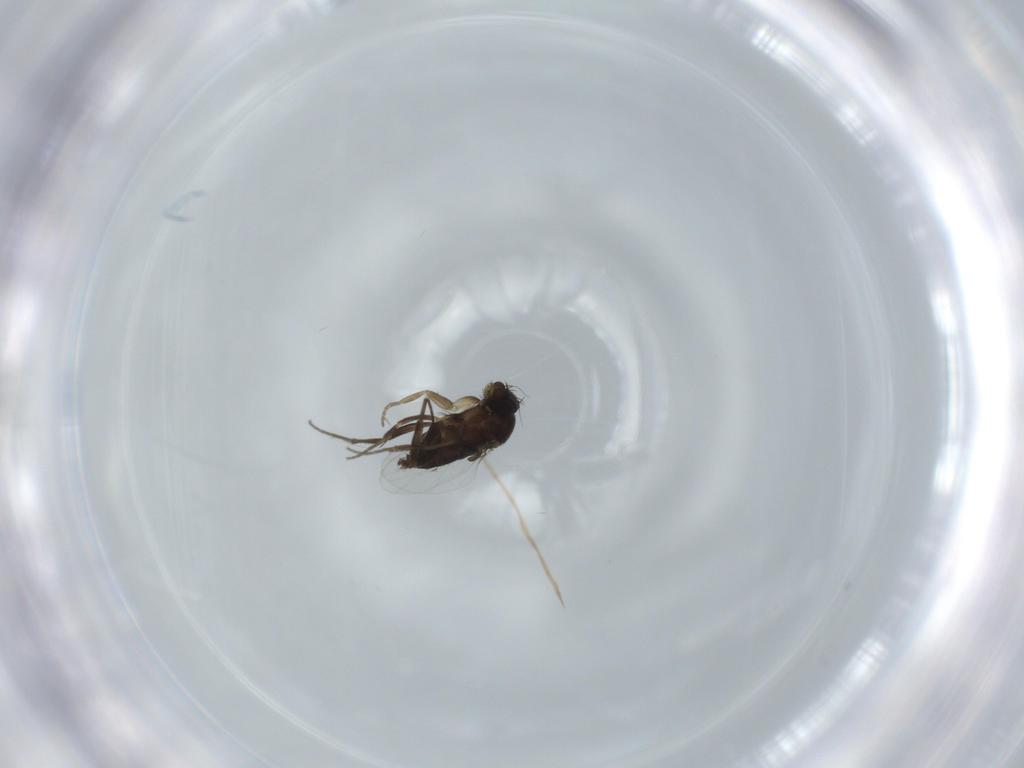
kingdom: Animalia
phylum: Arthropoda
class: Insecta
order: Diptera
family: Phoridae
